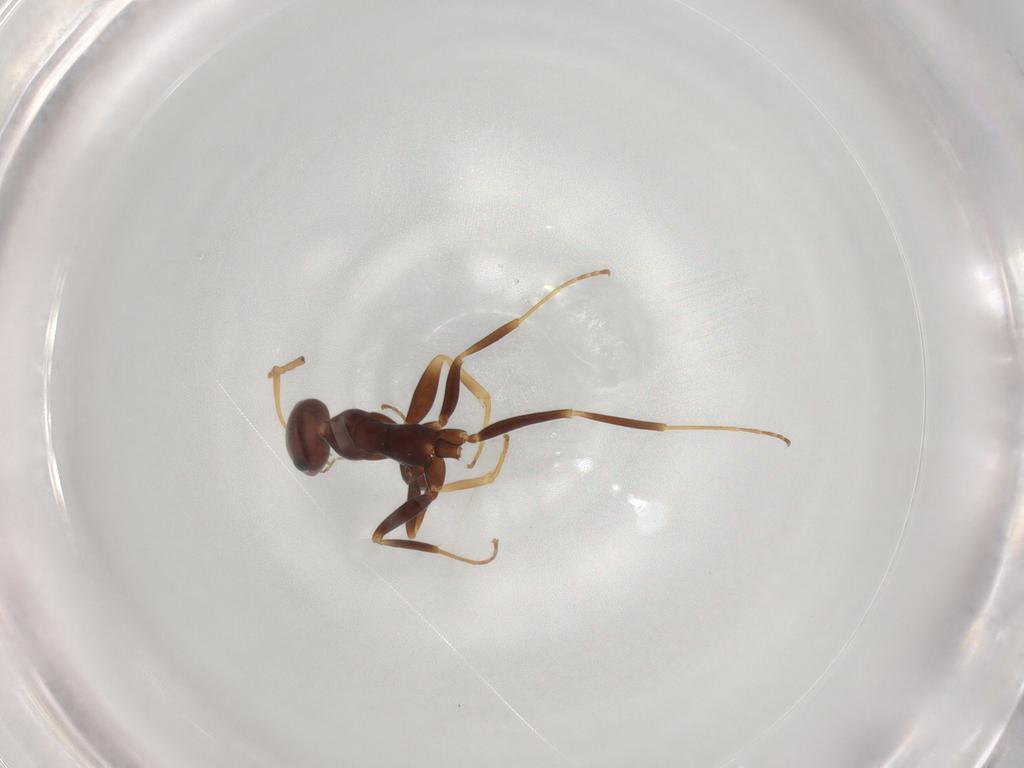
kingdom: Animalia
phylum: Arthropoda
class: Insecta
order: Hymenoptera
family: Formicidae
